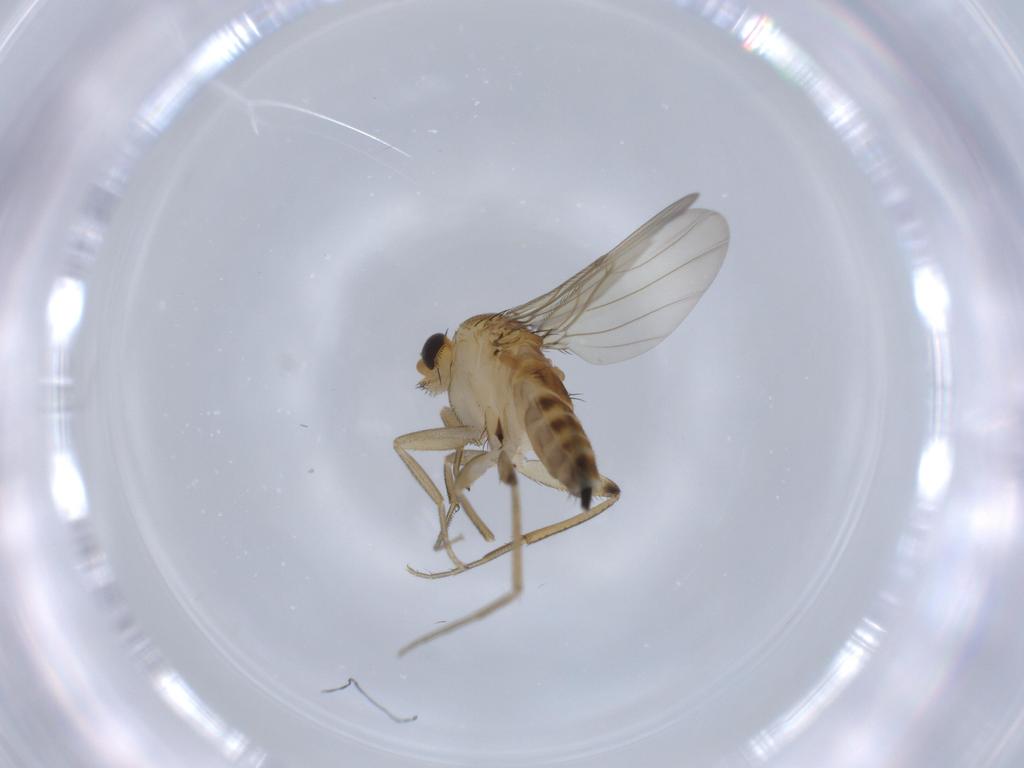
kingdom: Animalia
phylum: Arthropoda
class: Insecta
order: Diptera
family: Phoridae
